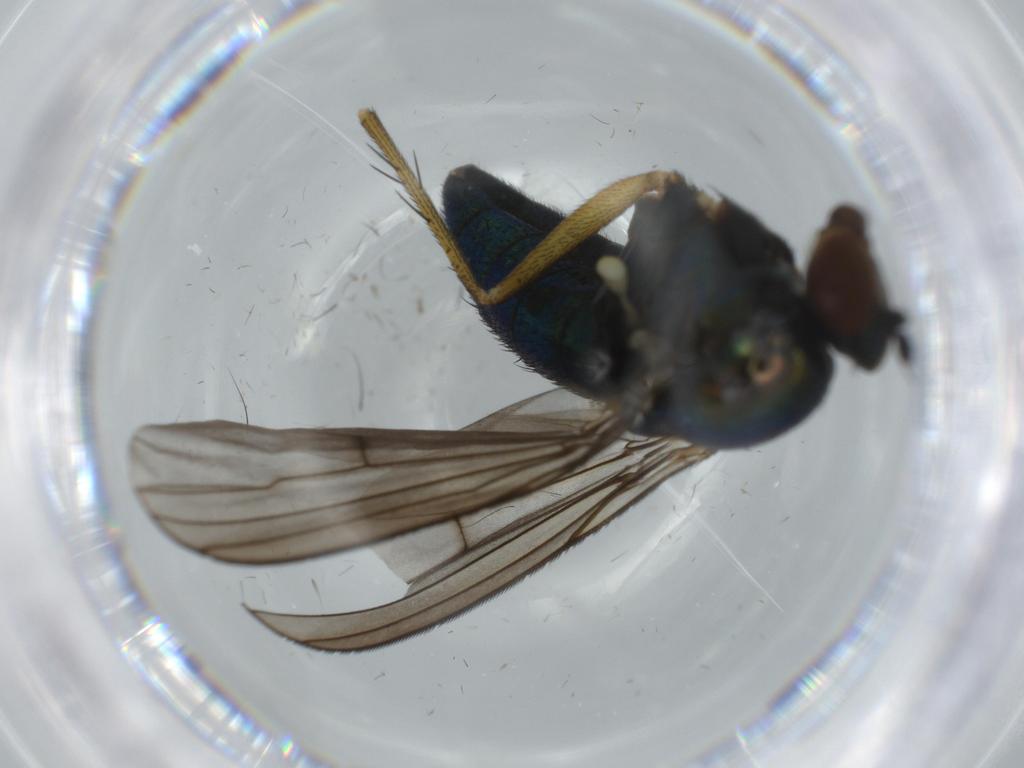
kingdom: Animalia
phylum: Arthropoda
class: Insecta
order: Diptera
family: Dolichopodidae
